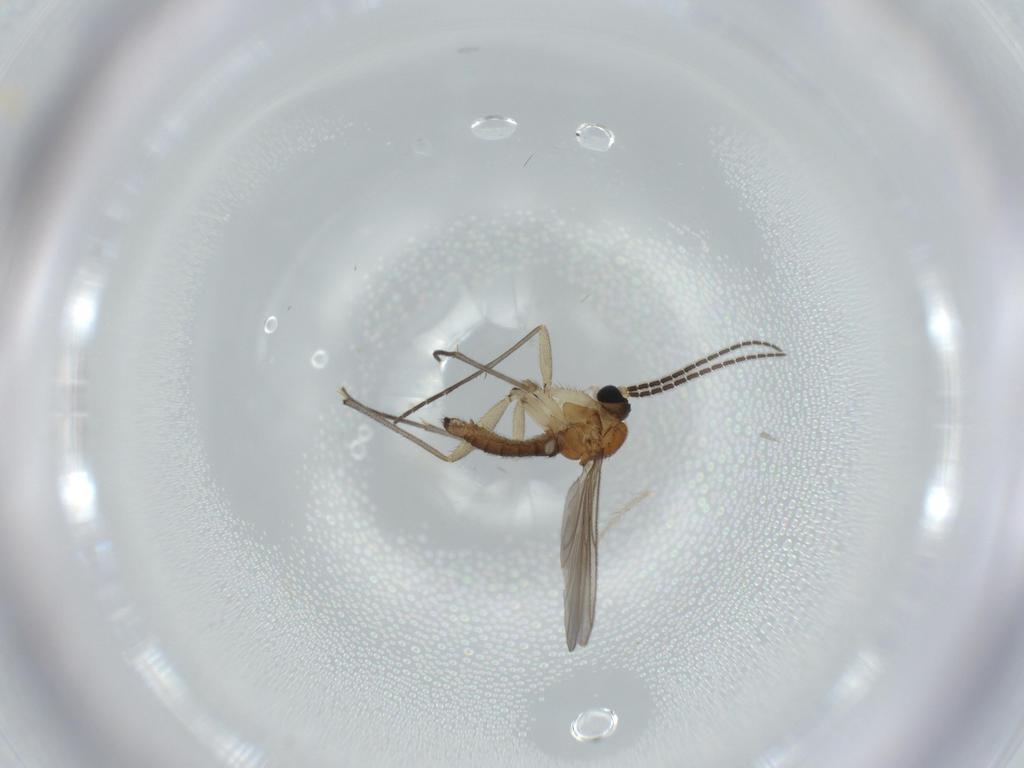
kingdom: Animalia
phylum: Arthropoda
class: Insecta
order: Diptera
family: Sciaridae
